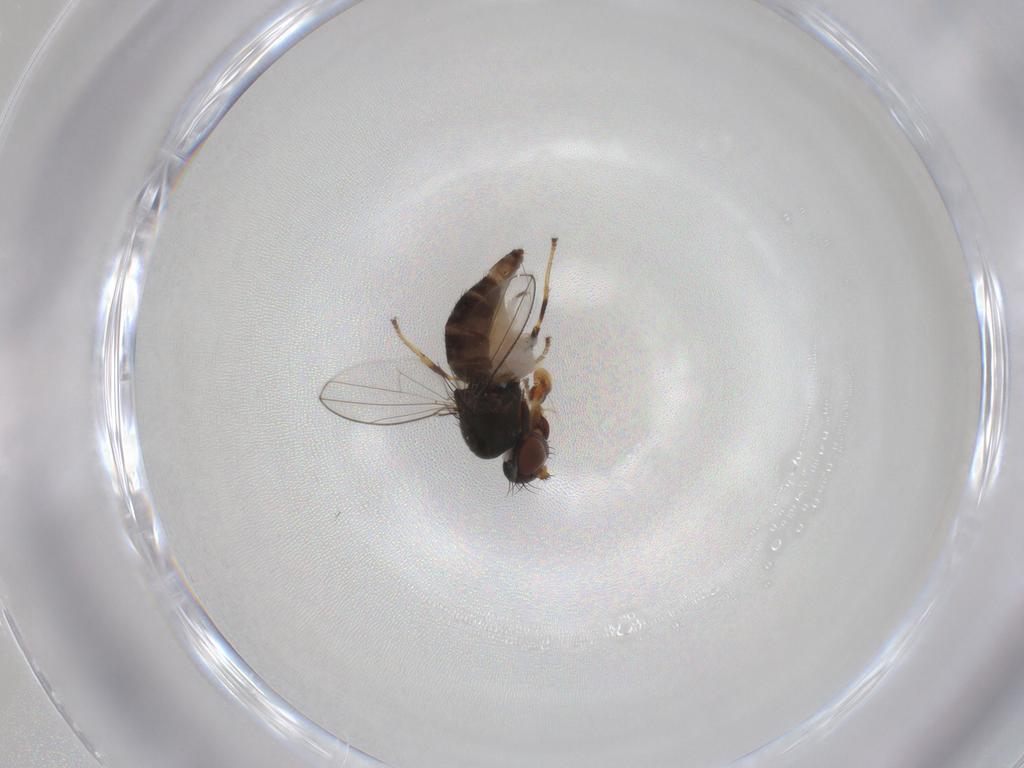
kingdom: Animalia
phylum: Arthropoda
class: Insecta
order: Diptera
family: Ephydridae
